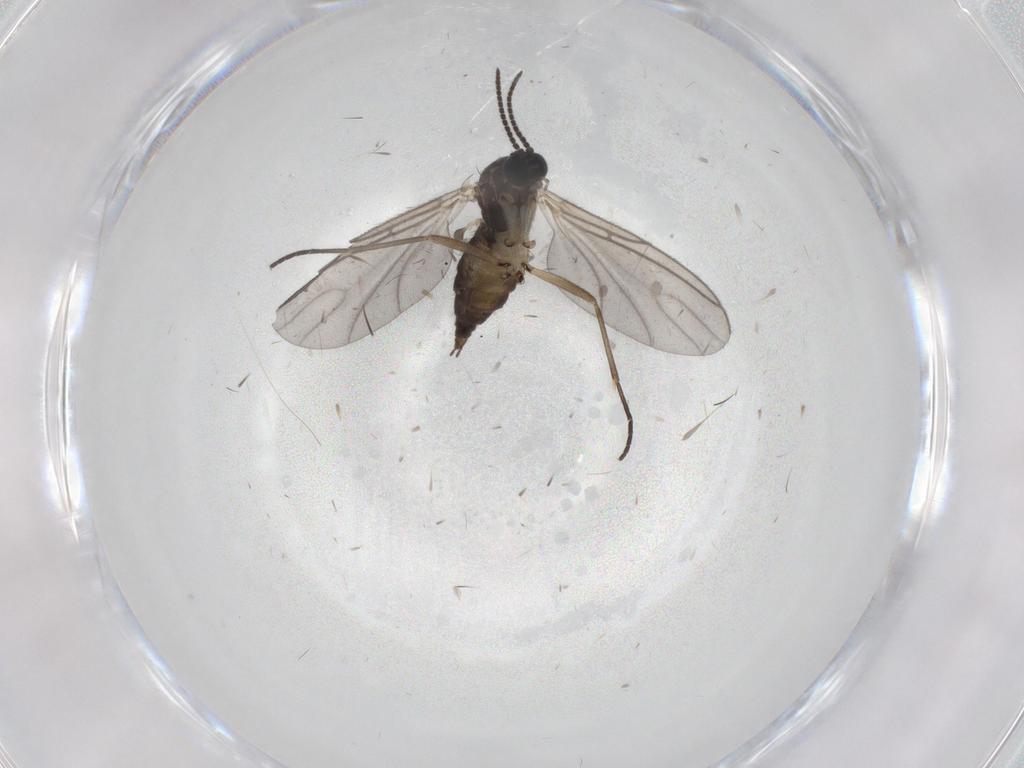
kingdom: Animalia
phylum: Arthropoda
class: Insecta
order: Diptera
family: Sciaridae
